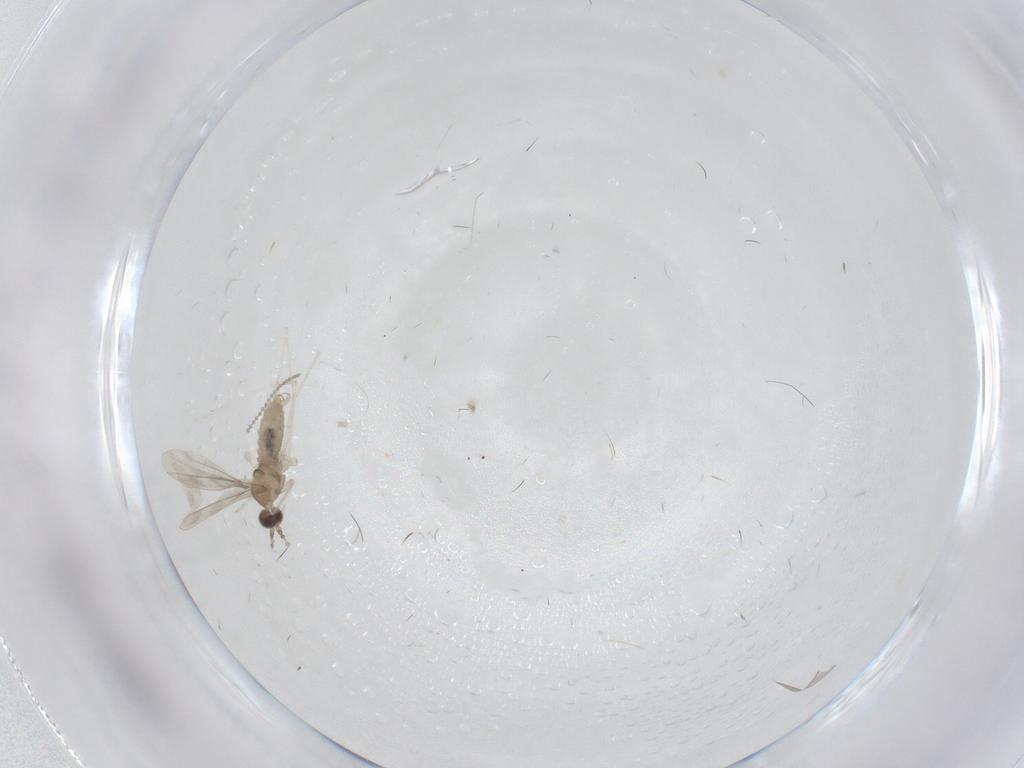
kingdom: Animalia
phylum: Arthropoda
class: Insecta
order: Diptera
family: Cecidomyiidae
